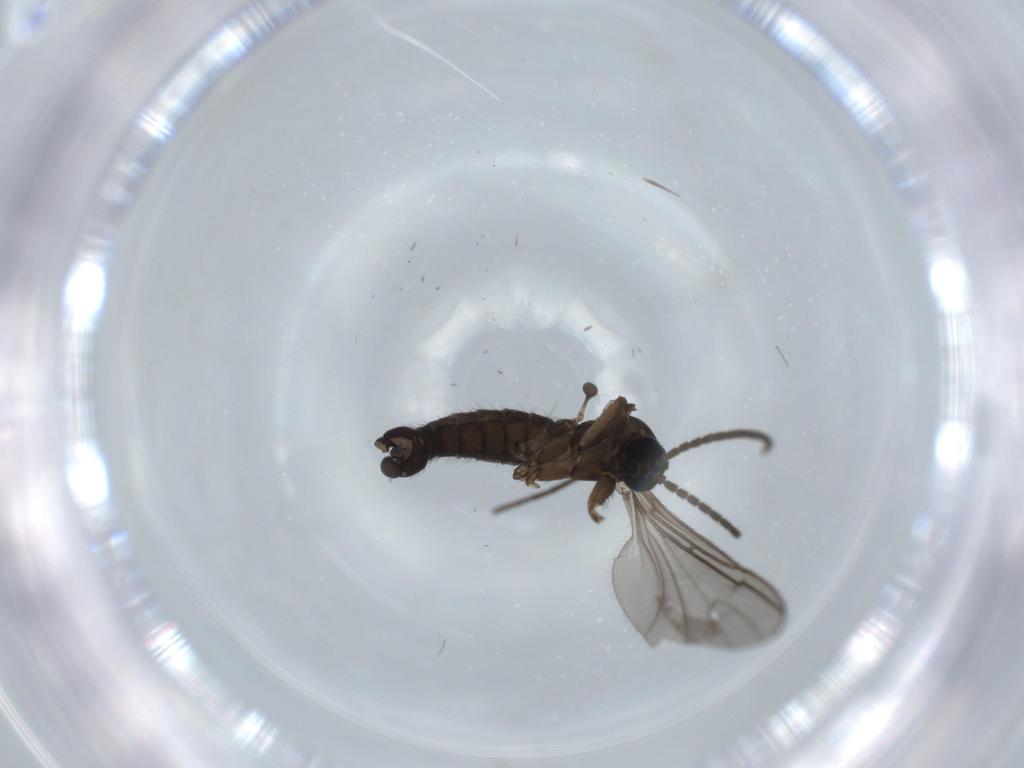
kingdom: Animalia
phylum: Arthropoda
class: Insecta
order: Diptera
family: Sciaridae
